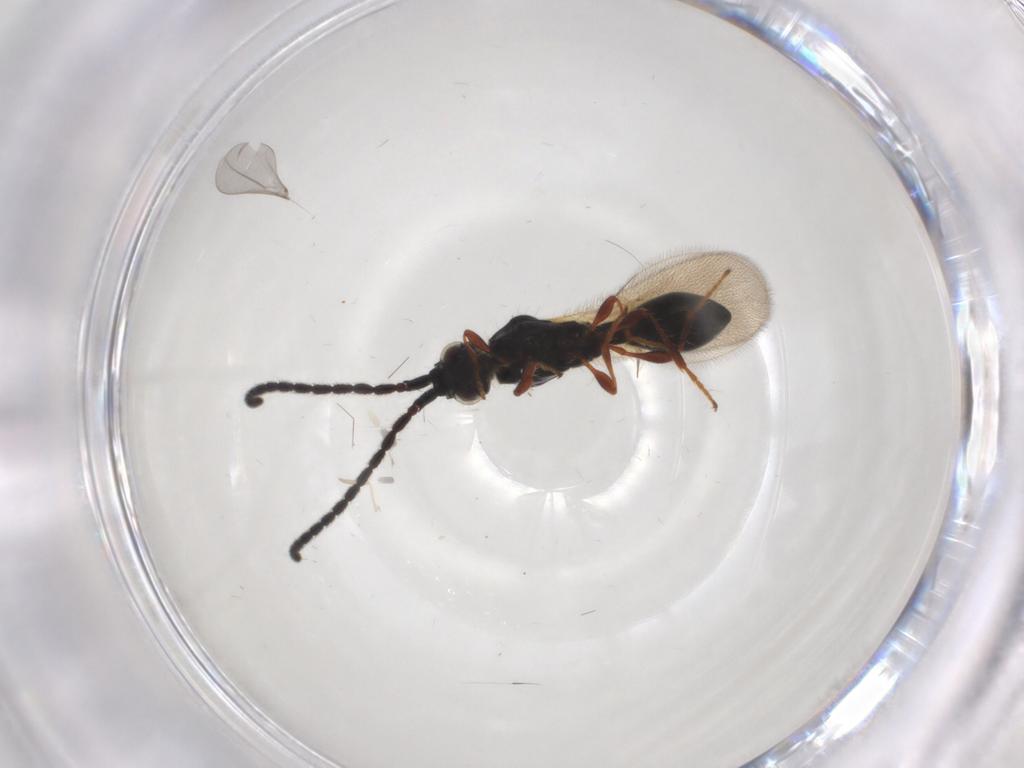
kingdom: Animalia
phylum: Arthropoda
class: Insecta
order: Hymenoptera
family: Diapriidae
